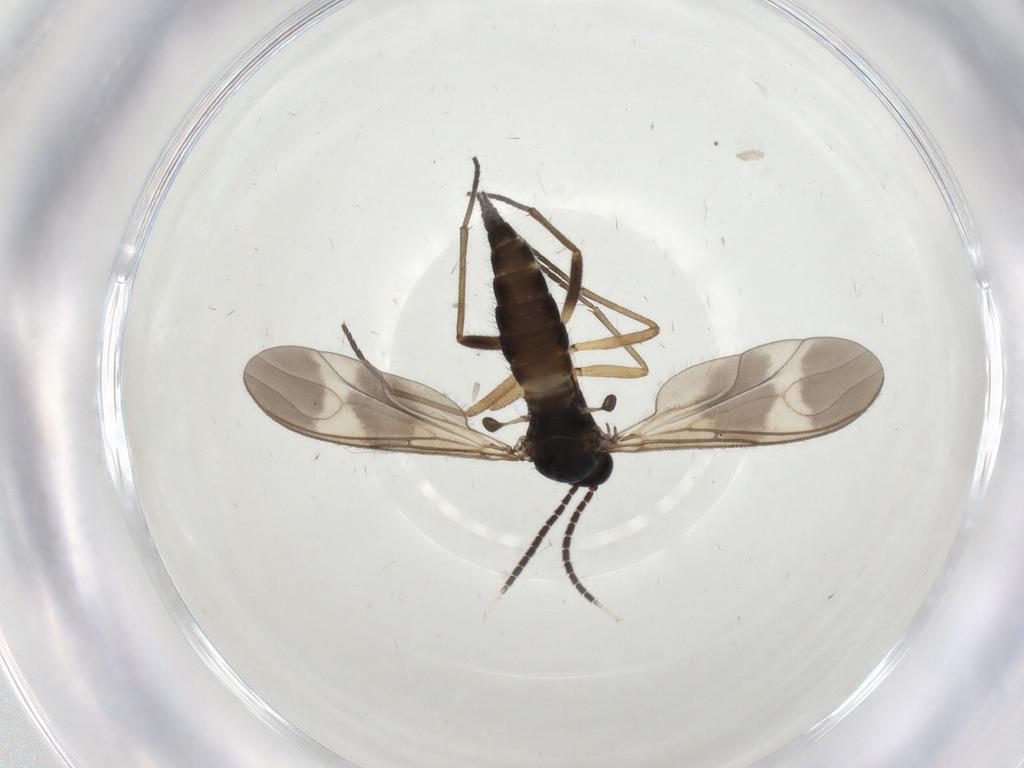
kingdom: Animalia
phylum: Arthropoda
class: Insecta
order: Diptera
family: Sciaridae
